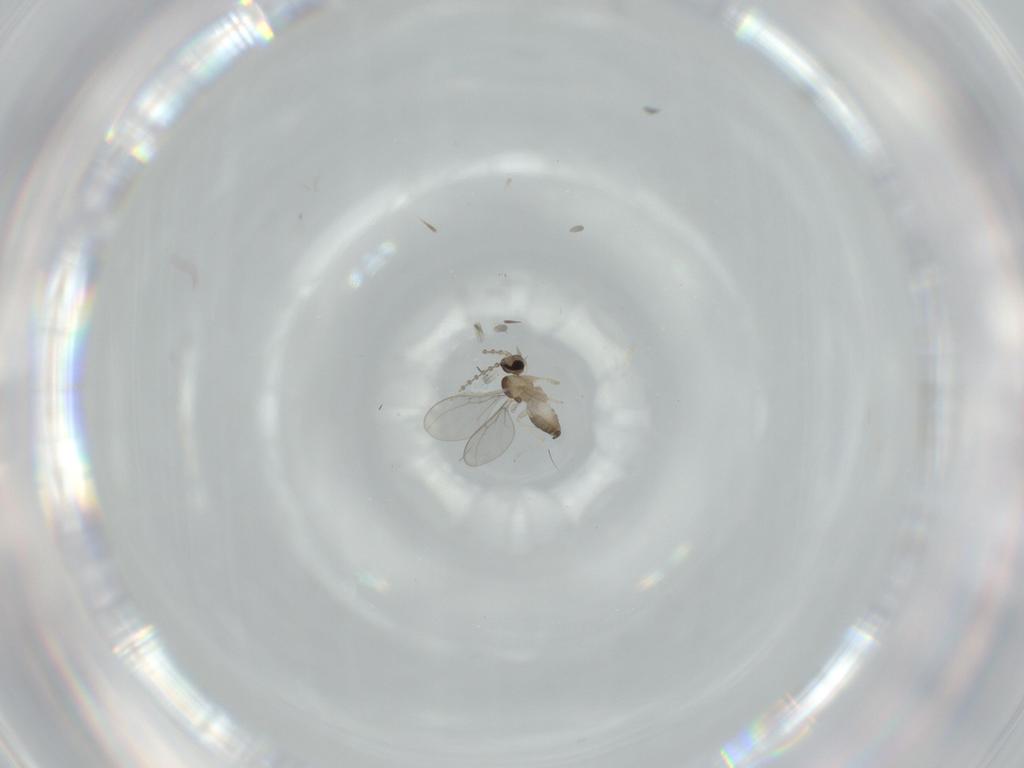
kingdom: Animalia
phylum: Arthropoda
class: Insecta
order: Diptera
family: Cecidomyiidae
